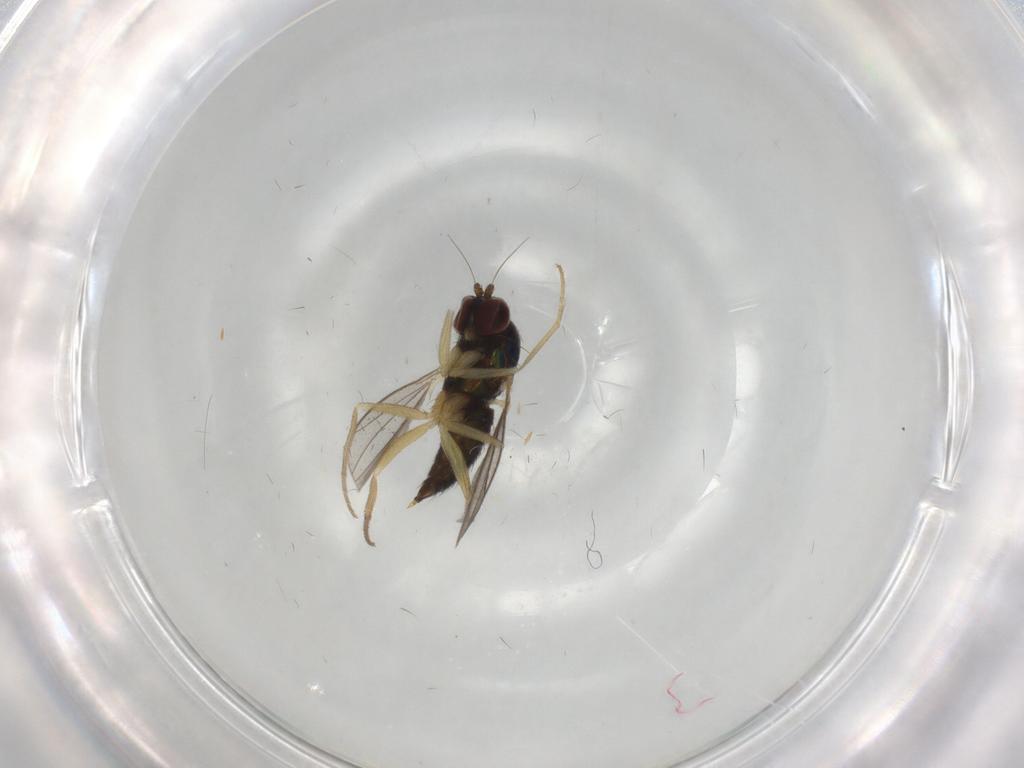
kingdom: Animalia
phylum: Arthropoda
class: Insecta
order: Diptera
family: Dolichopodidae
